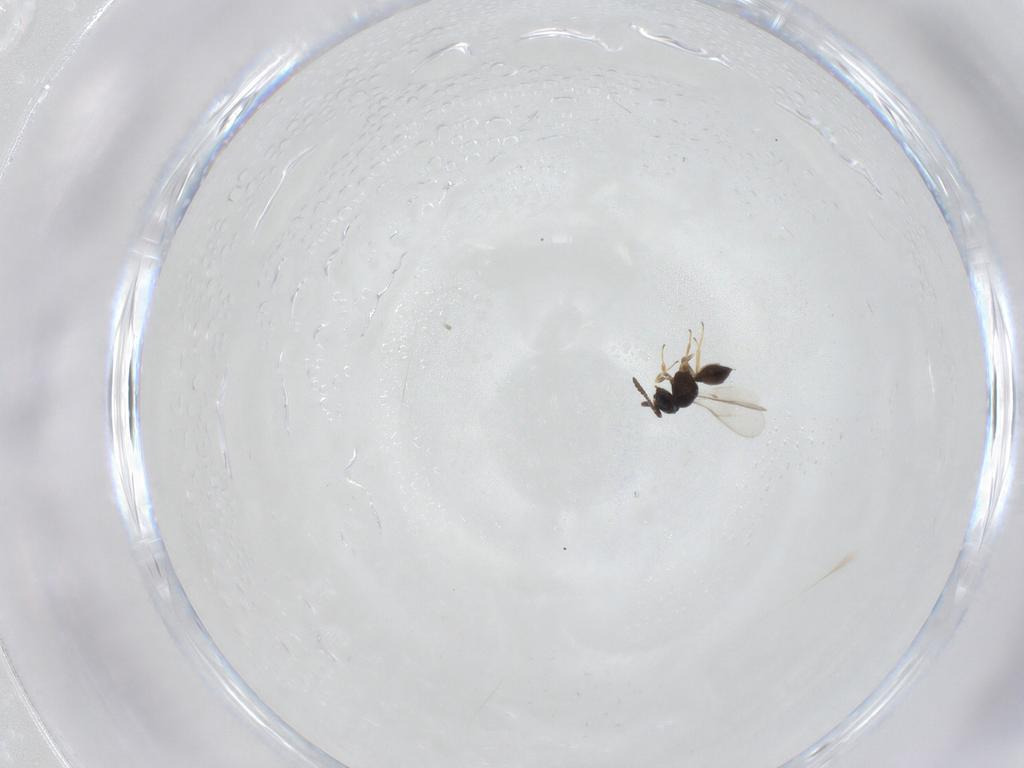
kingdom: Animalia
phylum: Arthropoda
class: Insecta
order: Hymenoptera
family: Scelionidae
